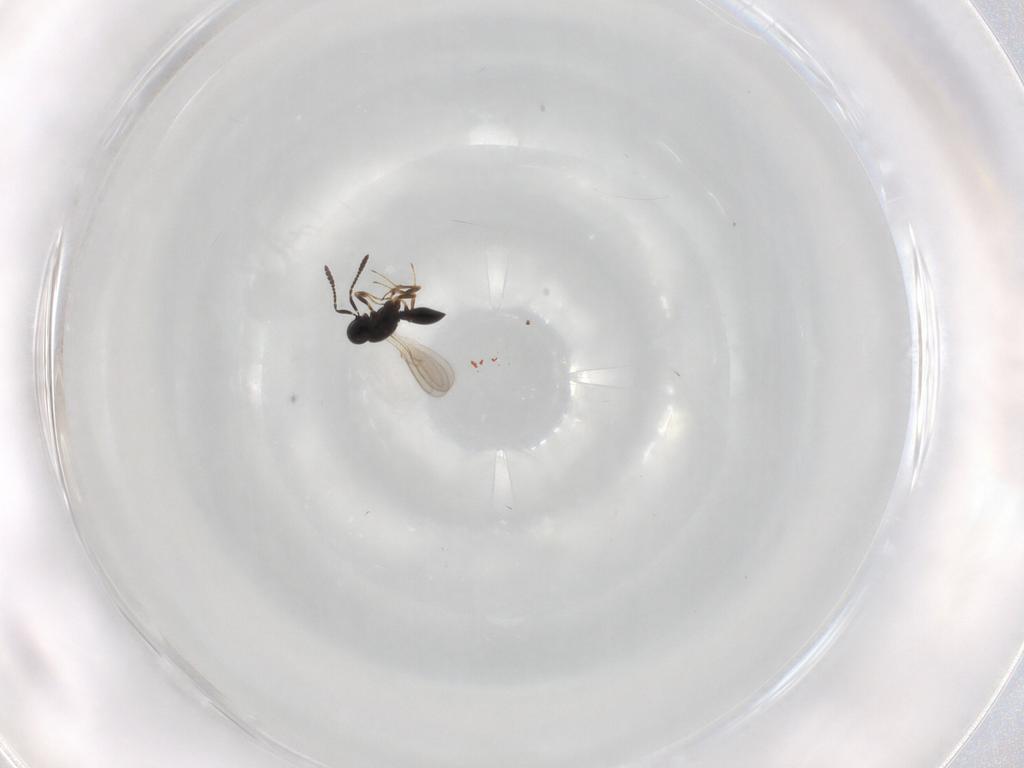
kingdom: Animalia
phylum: Arthropoda
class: Insecta
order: Hymenoptera
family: Scelionidae
